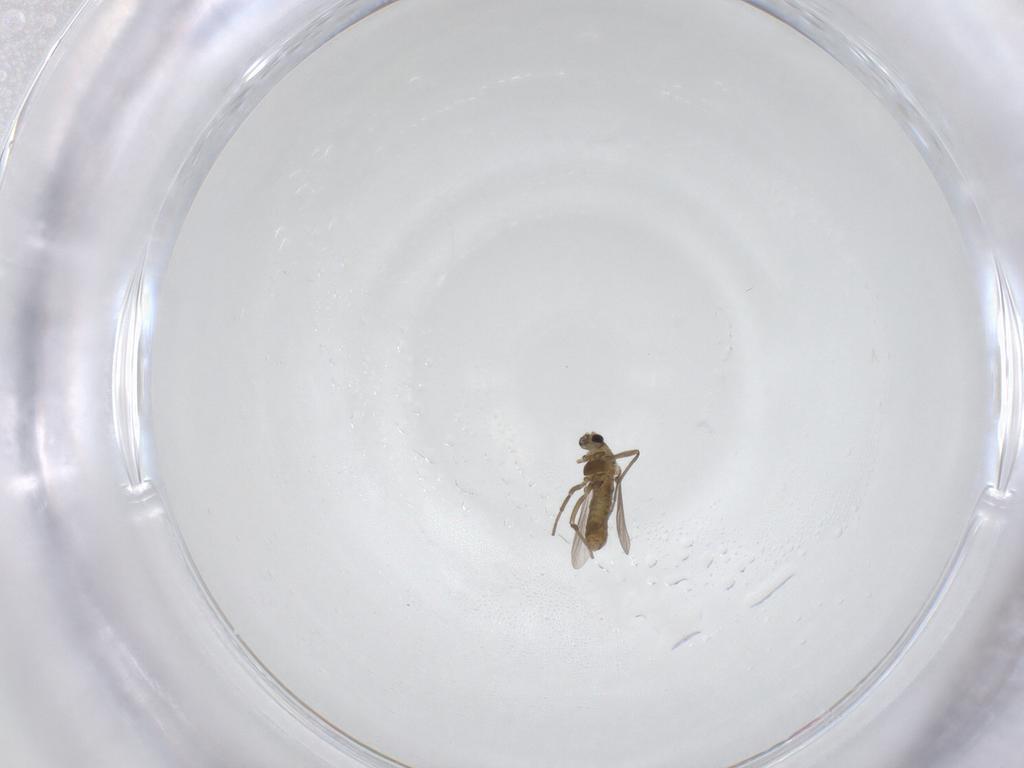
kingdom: Animalia
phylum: Arthropoda
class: Insecta
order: Diptera
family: Chironomidae
